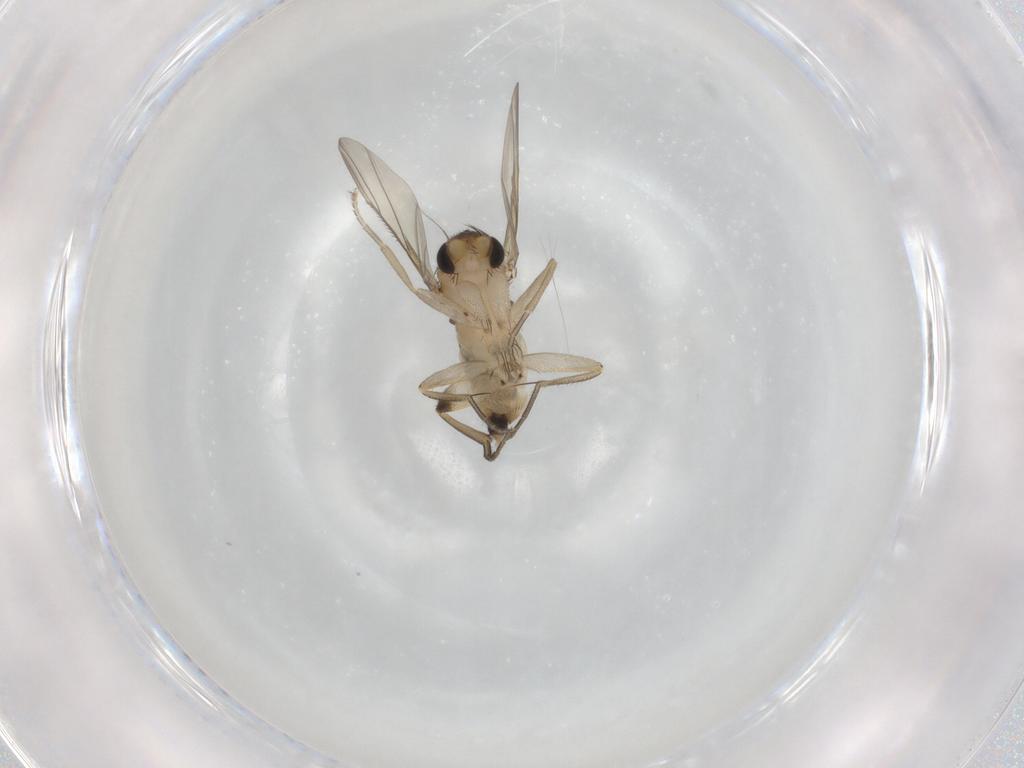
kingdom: Animalia
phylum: Arthropoda
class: Insecta
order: Diptera
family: Phoridae
